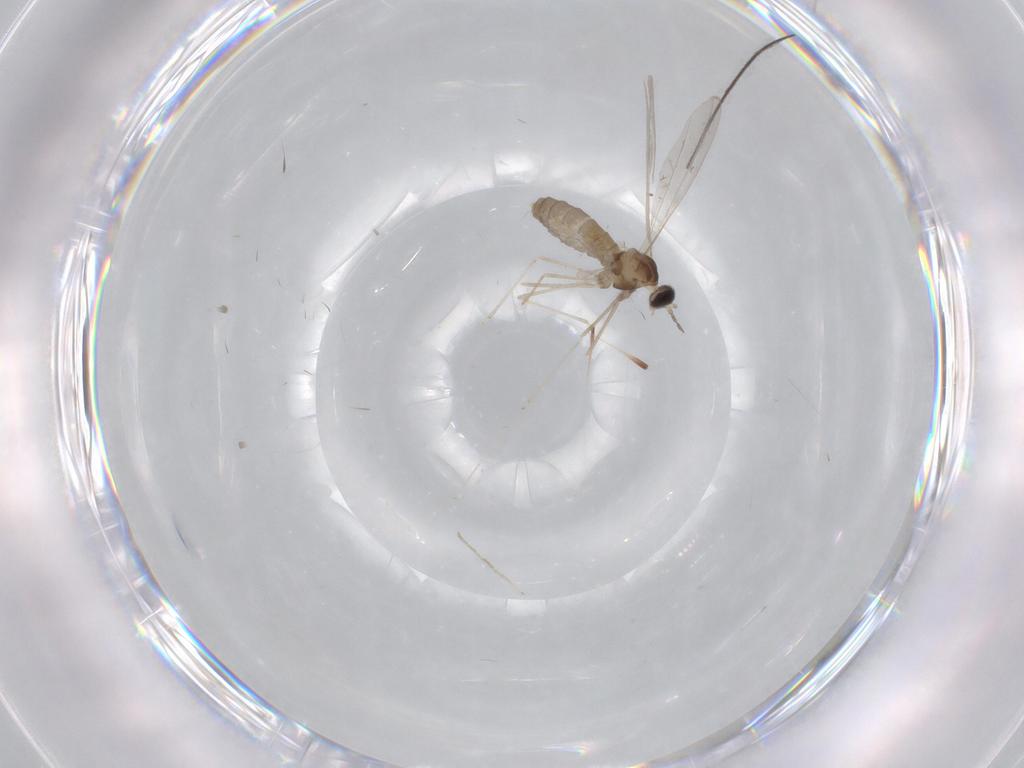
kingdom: Animalia
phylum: Arthropoda
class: Insecta
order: Diptera
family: Cecidomyiidae
